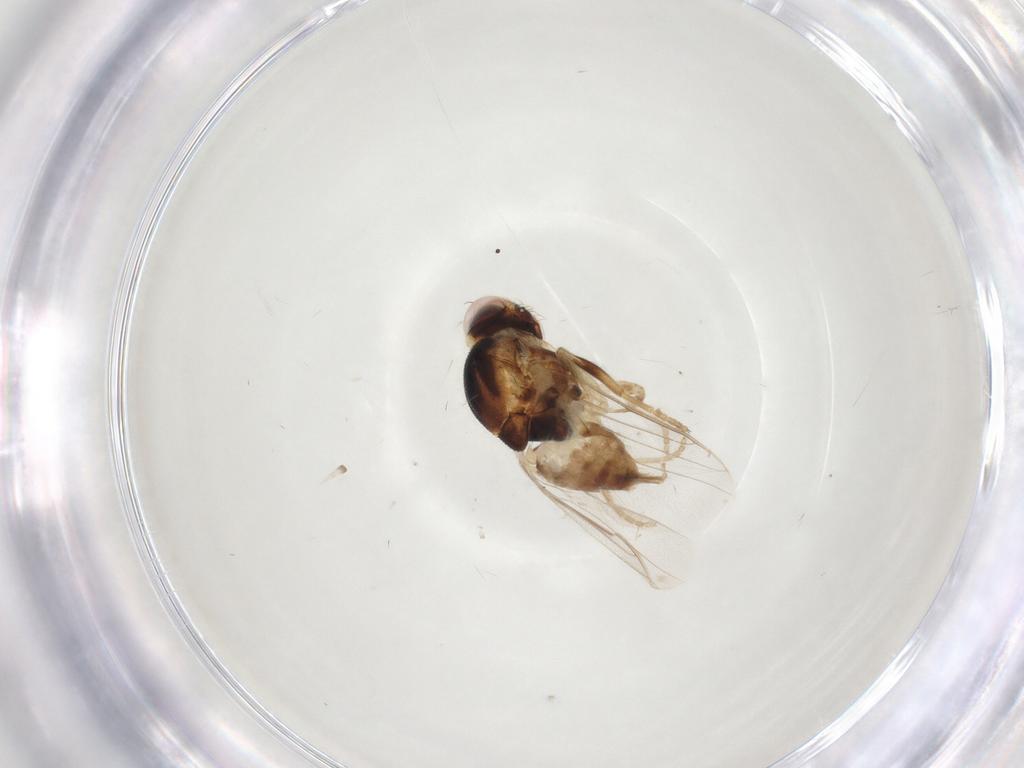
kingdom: Animalia
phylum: Arthropoda
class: Insecta
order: Diptera
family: Chloropidae
